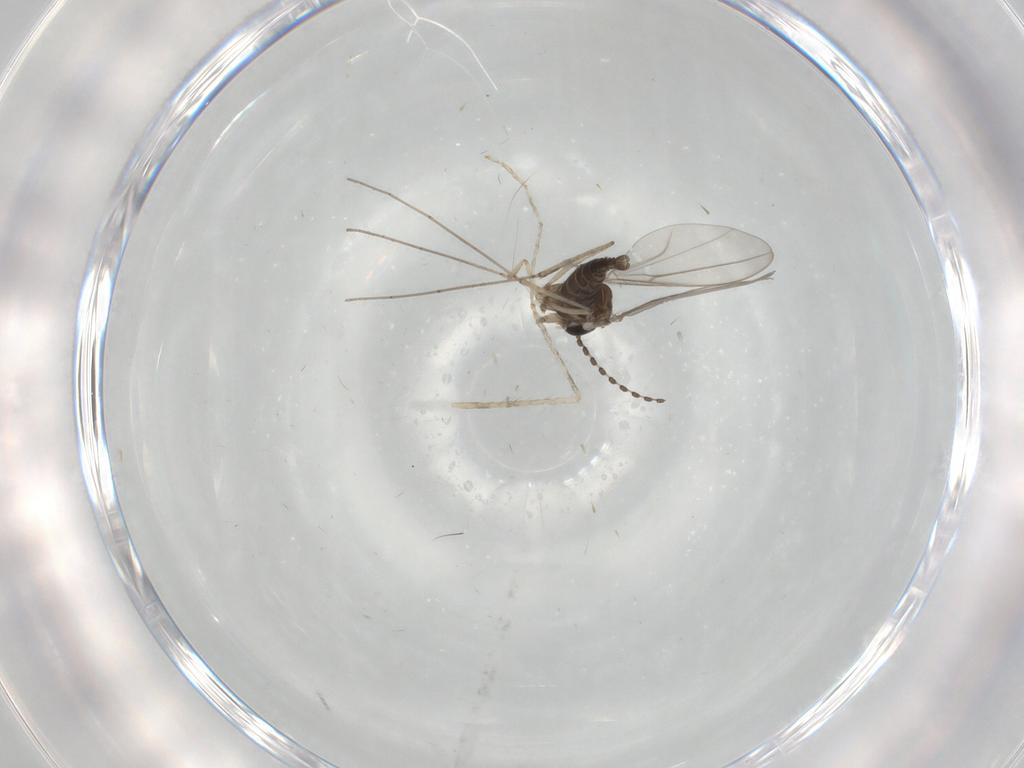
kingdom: Animalia
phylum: Arthropoda
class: Insecta
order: Diptera
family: Cecidomyiidae
